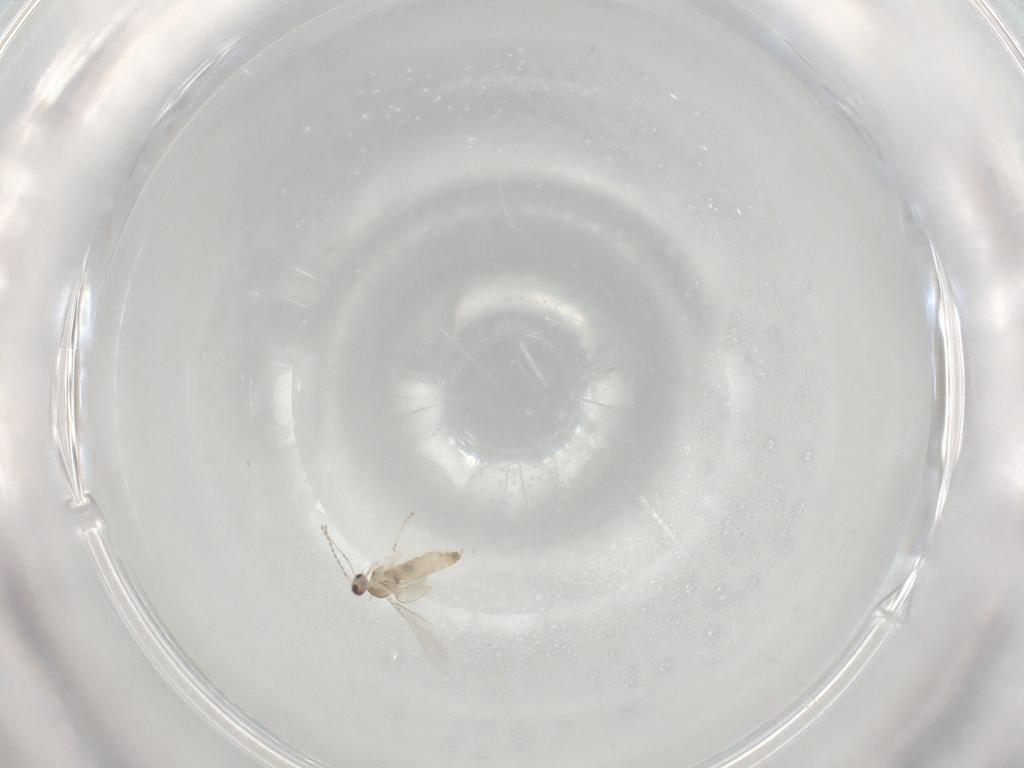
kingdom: Animalia
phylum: Arthropoda
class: Insecta
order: Diptera
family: Cecidomyiidae
